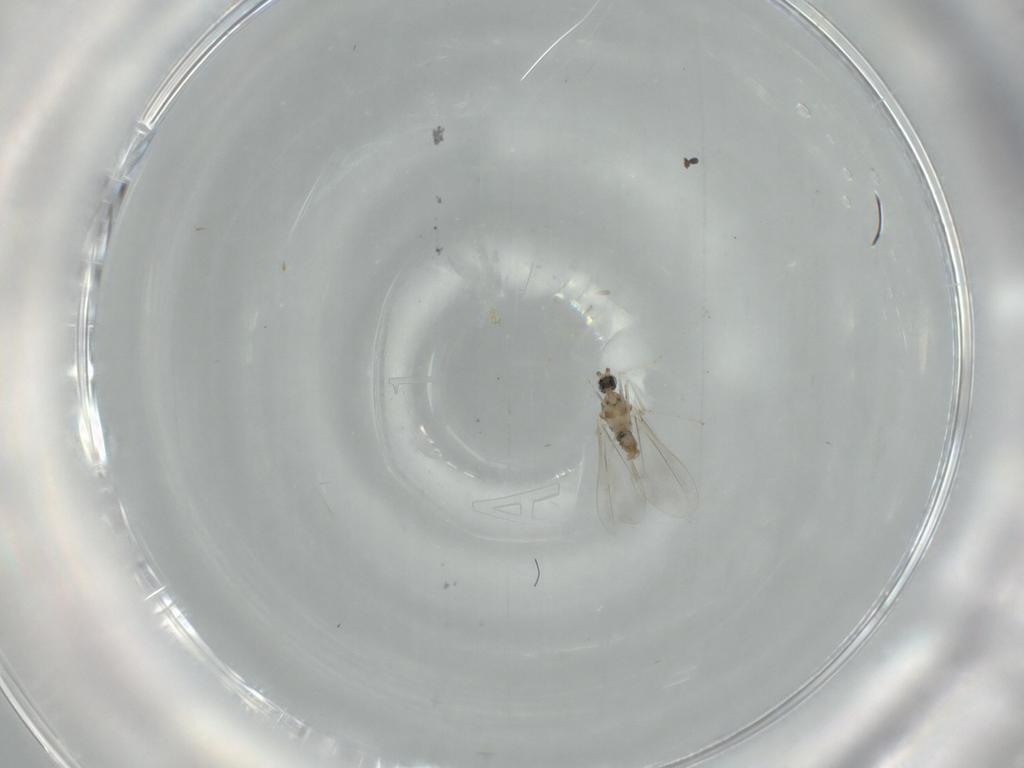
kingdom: Animalia
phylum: Arthropoda
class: Insecta
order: Diptera
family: Cecidomyiidae
